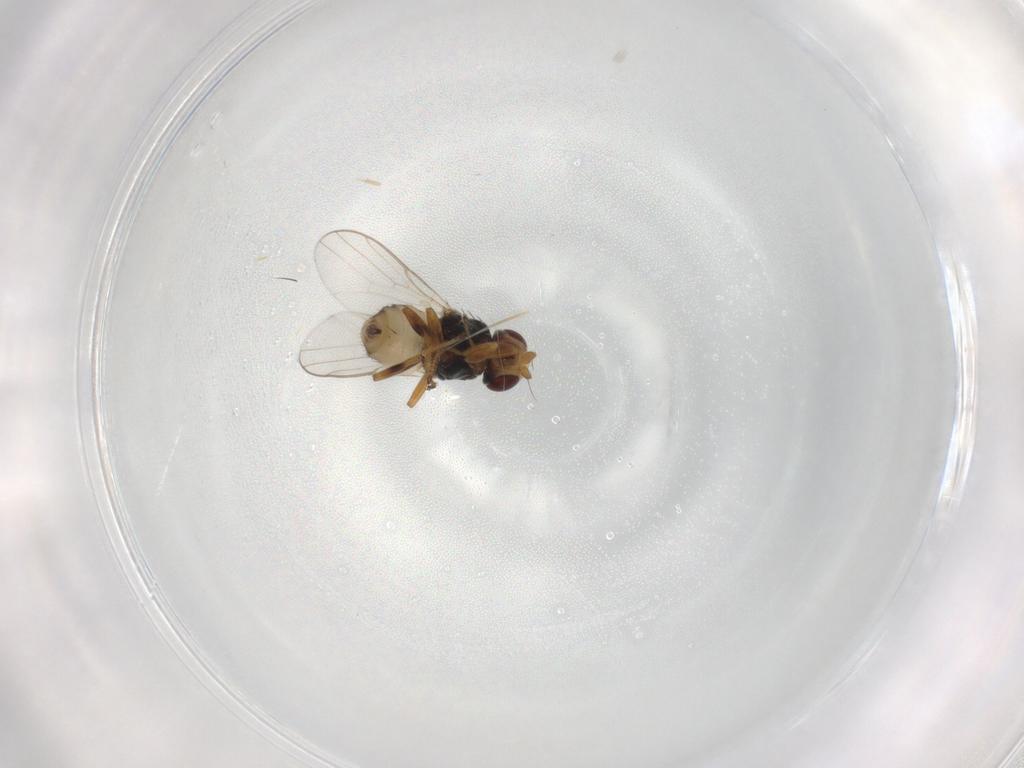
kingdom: Animalia
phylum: Arthropoda
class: Insecta
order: Diptera
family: Chloropidae
